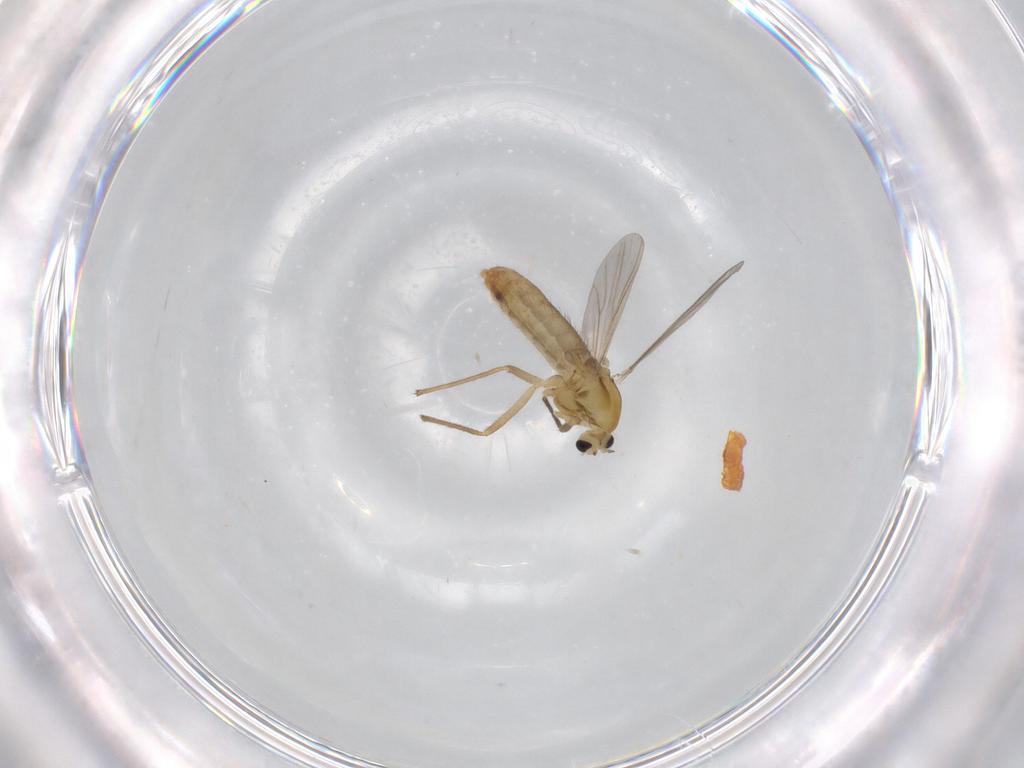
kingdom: Animalia
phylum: Arthropoda
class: Insecta
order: Diptera
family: Chironomidae
